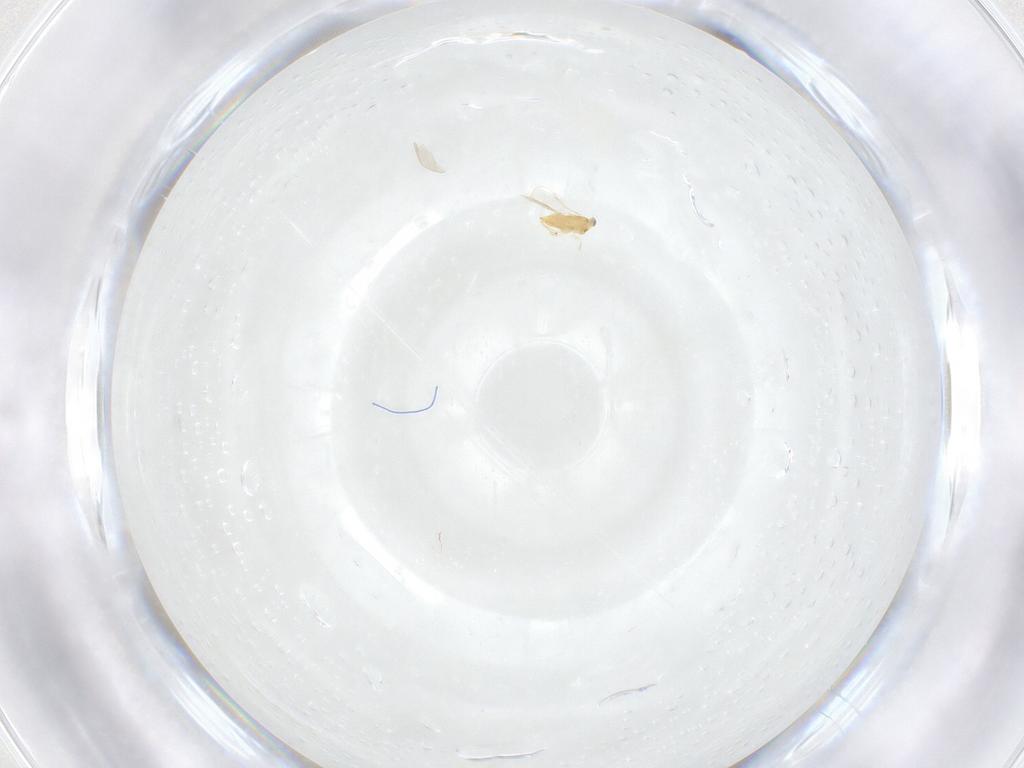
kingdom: Animalia
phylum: Arthropoda
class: Insecta
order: Hymenoptera
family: Aphelinidae
